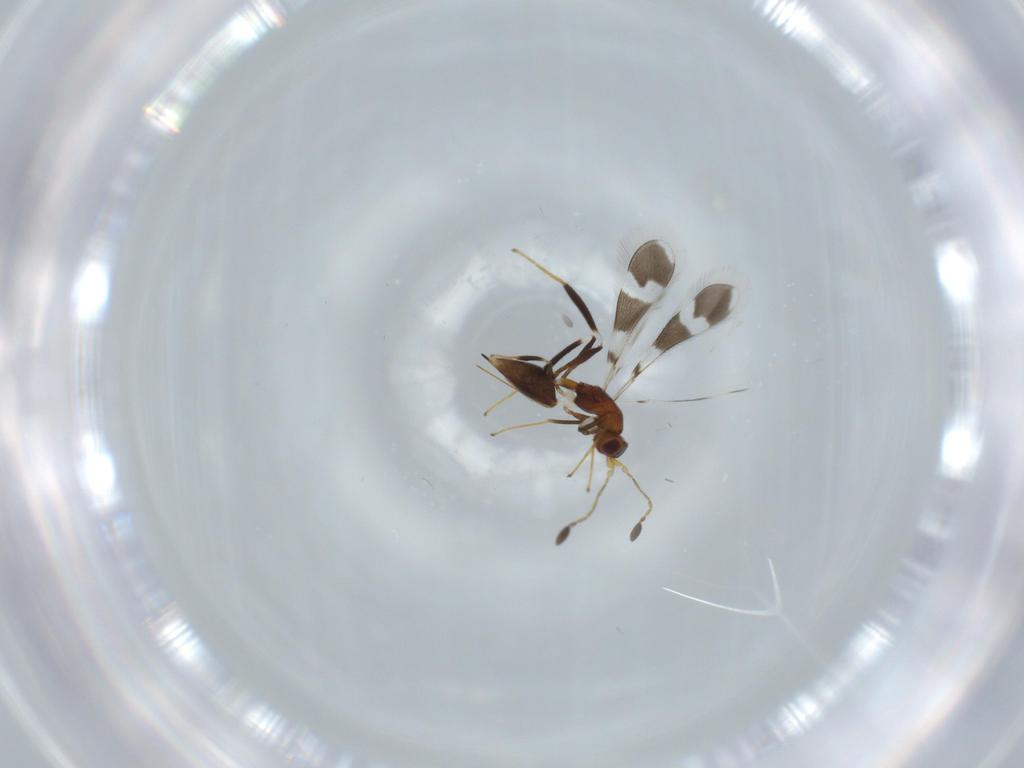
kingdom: Animalia
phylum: Arthropoda
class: Insecta
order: Hymenoptera
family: Mymaridae
